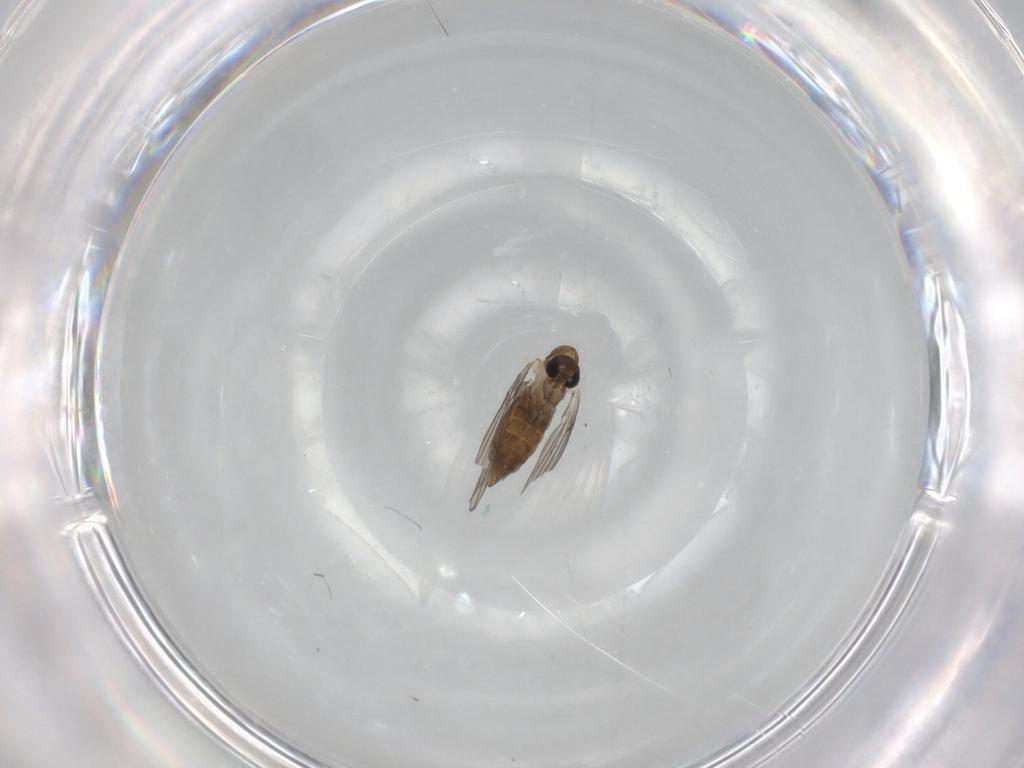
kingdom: Animalia
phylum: Arthropoda
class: Insecta
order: Diptera
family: Psychodidae
